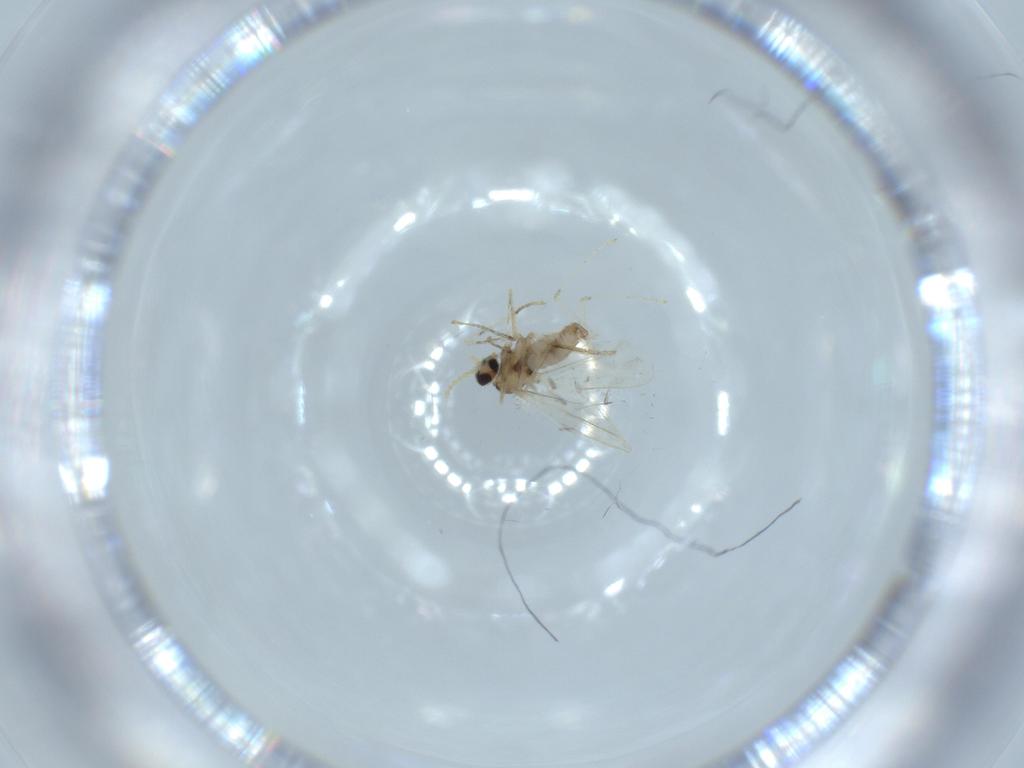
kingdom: Animalia
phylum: Arthropoda
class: Insecta
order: Diptera
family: Cecidomyiidae
